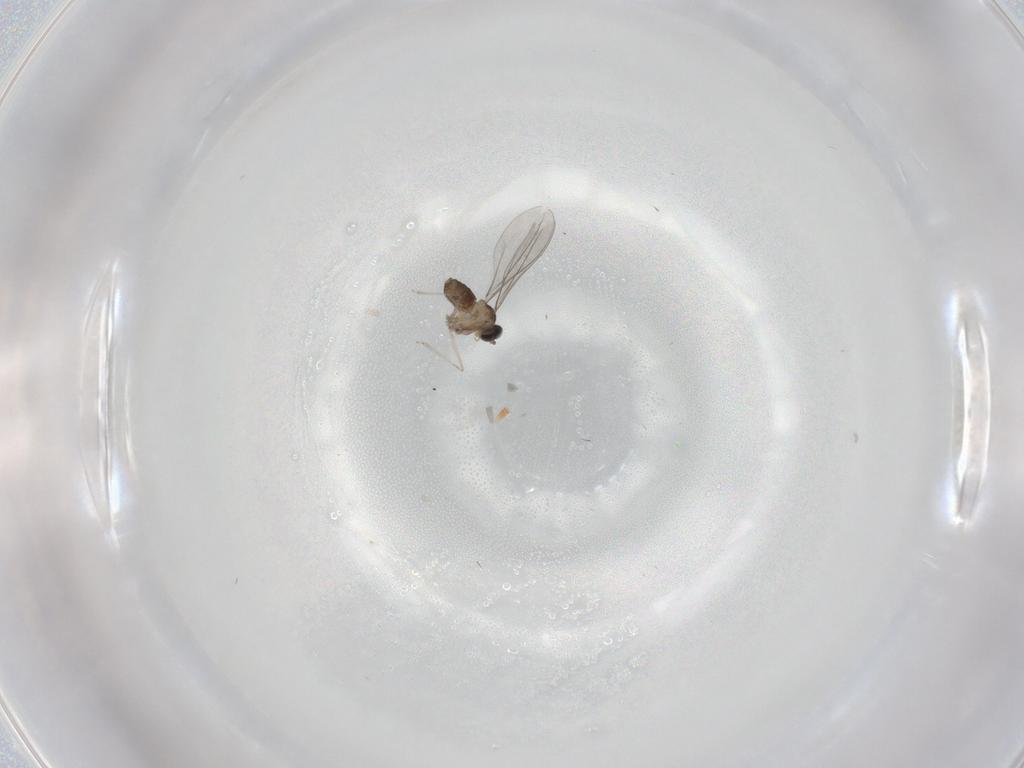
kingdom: Animalia
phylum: Arthropoda
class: Insecta
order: Diptera
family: Cecidomyiidae
